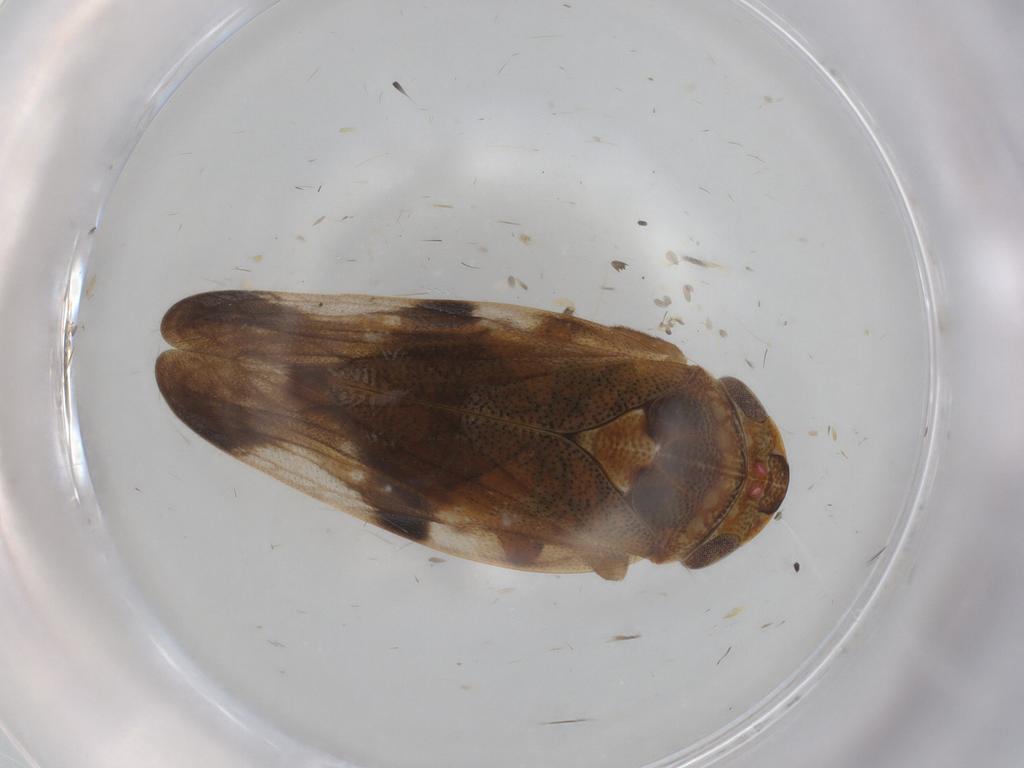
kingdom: Animalia
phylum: Arthropoda
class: Insecta
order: Hemiptera
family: Aphrophoridae
